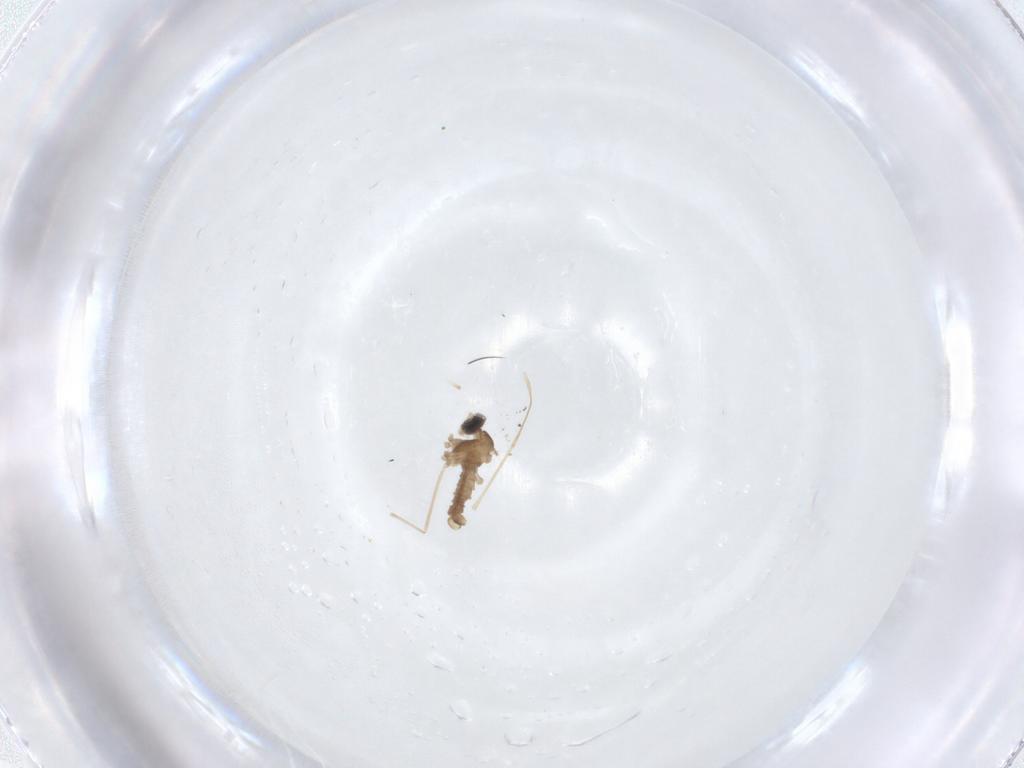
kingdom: Animalia
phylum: Arthropoda
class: Insecta
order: Diptera
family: Cecidomyiidae
